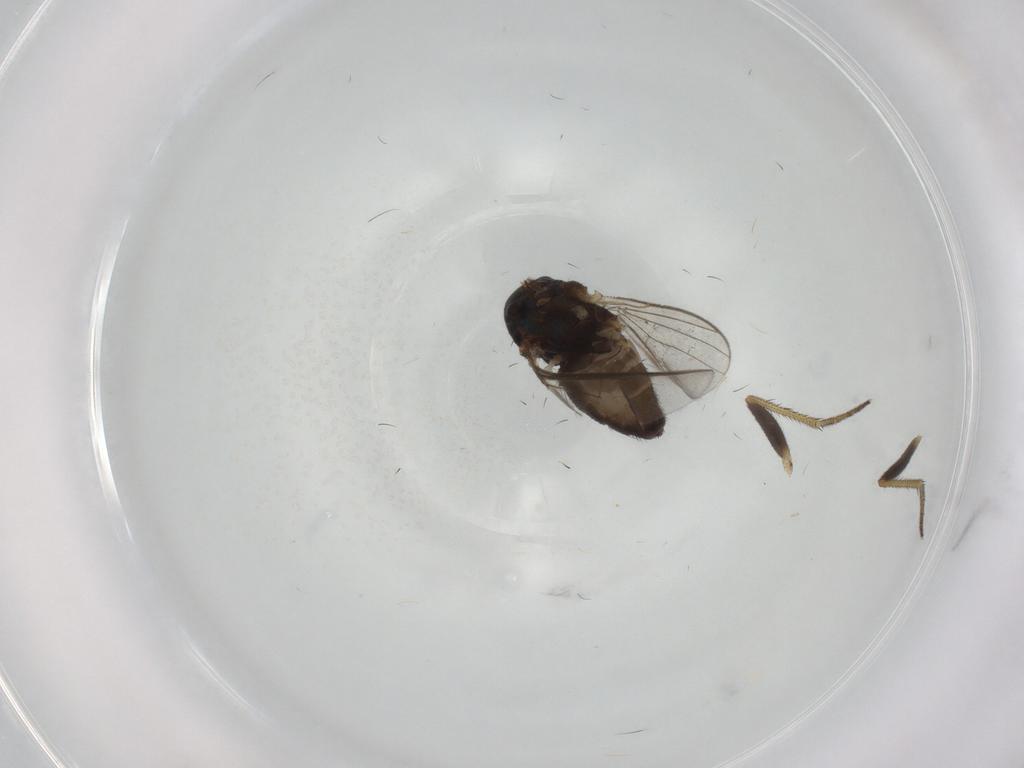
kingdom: Animalia
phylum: Arthropoda
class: Insecta
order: Diptera
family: Dolichopodidae
